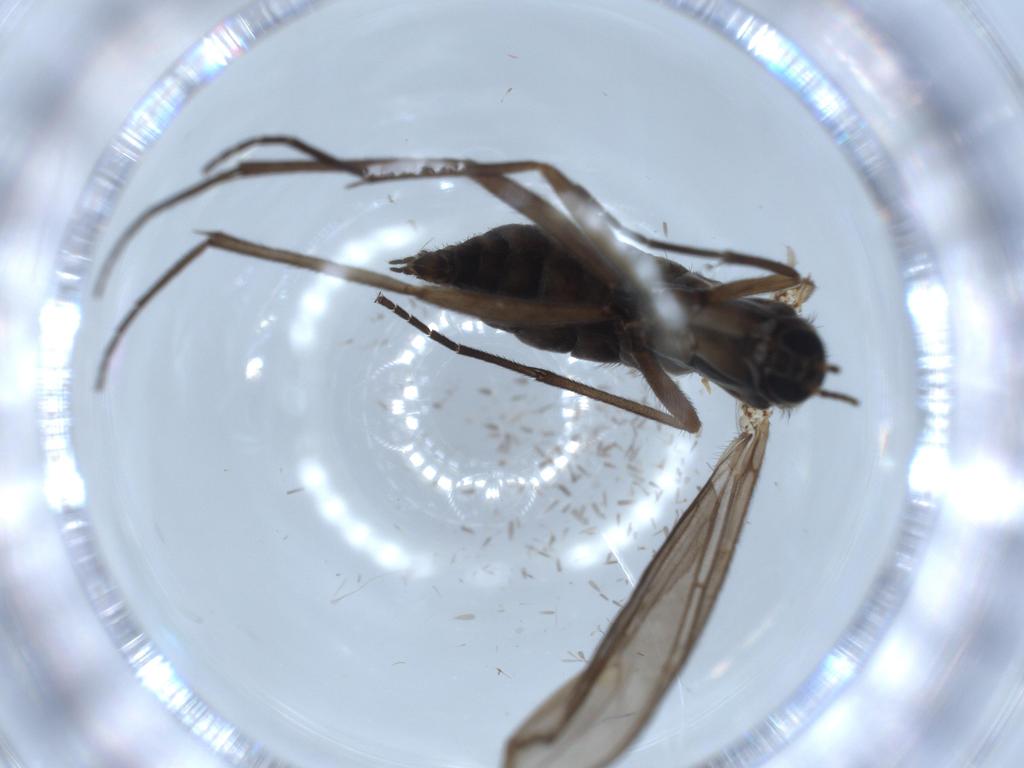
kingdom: Animalia
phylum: Arthropoda
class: Insecta
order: Diptera
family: Sciaridae
